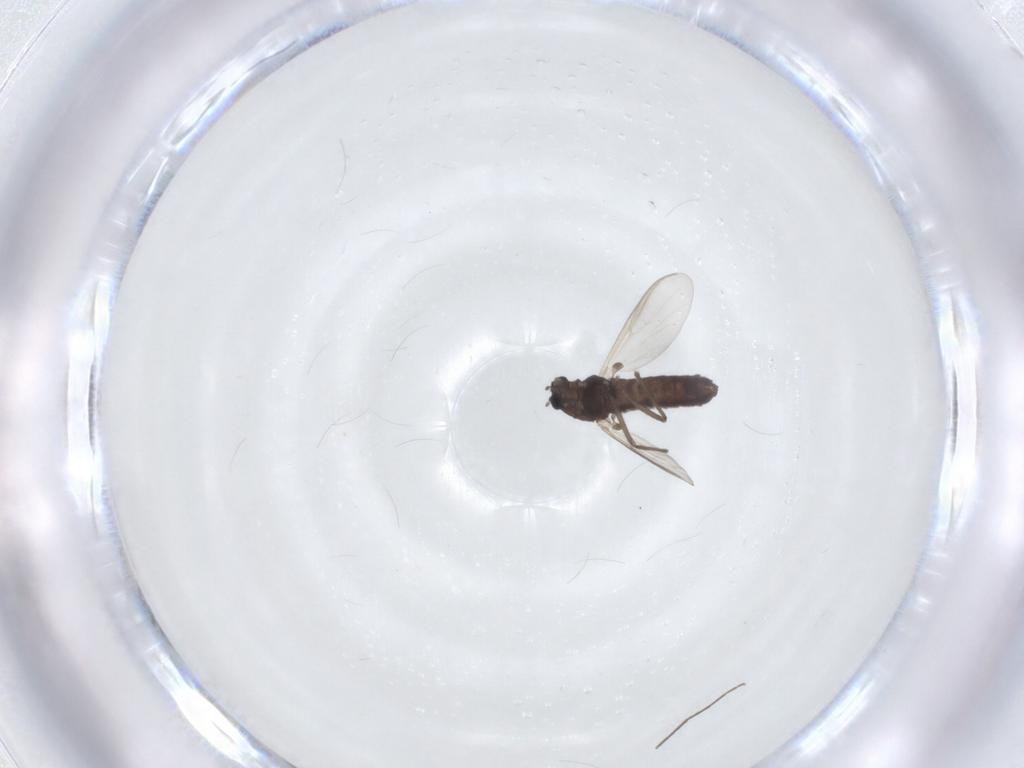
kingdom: Animalia
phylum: Arthropoda
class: Insecta
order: Diptera
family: Chironomidae
